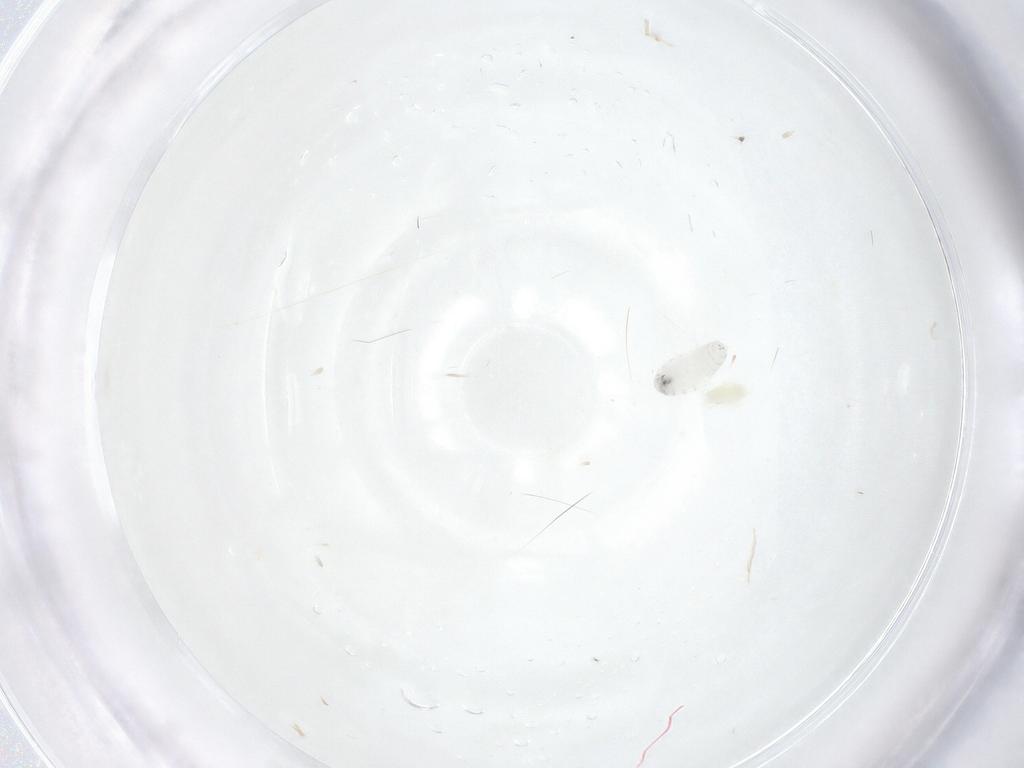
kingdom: Animalia
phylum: Arthropoda
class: Insecta
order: Diptera
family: Tachinidae
